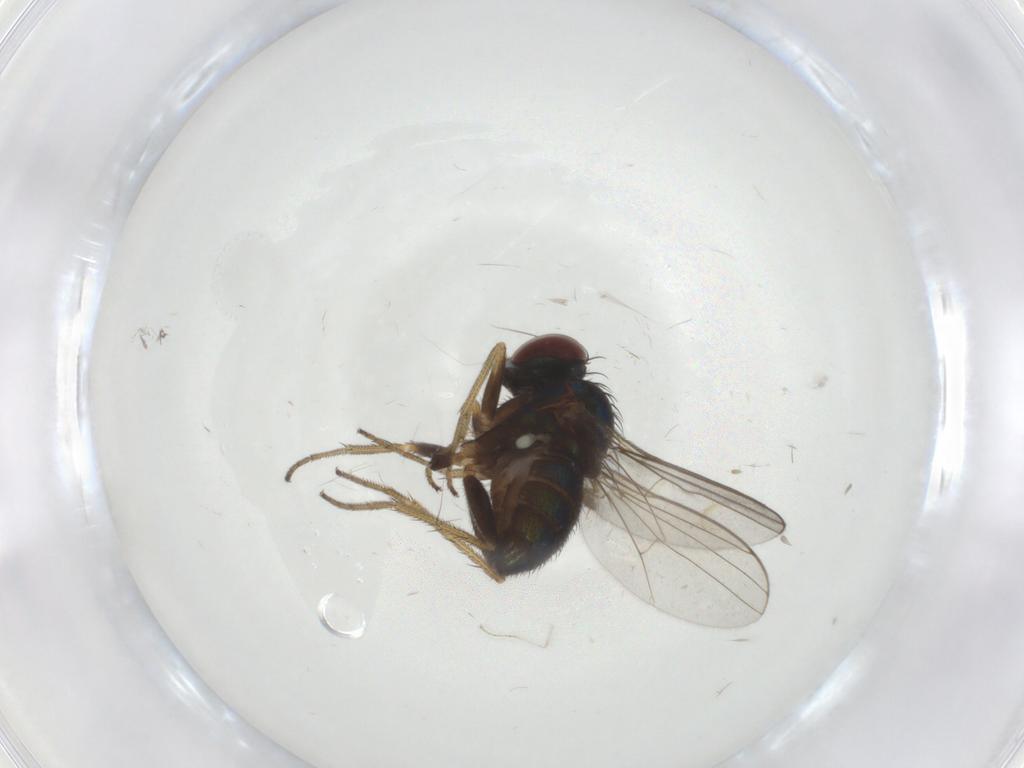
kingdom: Animalia
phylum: Arthropoda
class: Insecta
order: Diptera
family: Cecidomyiidae
